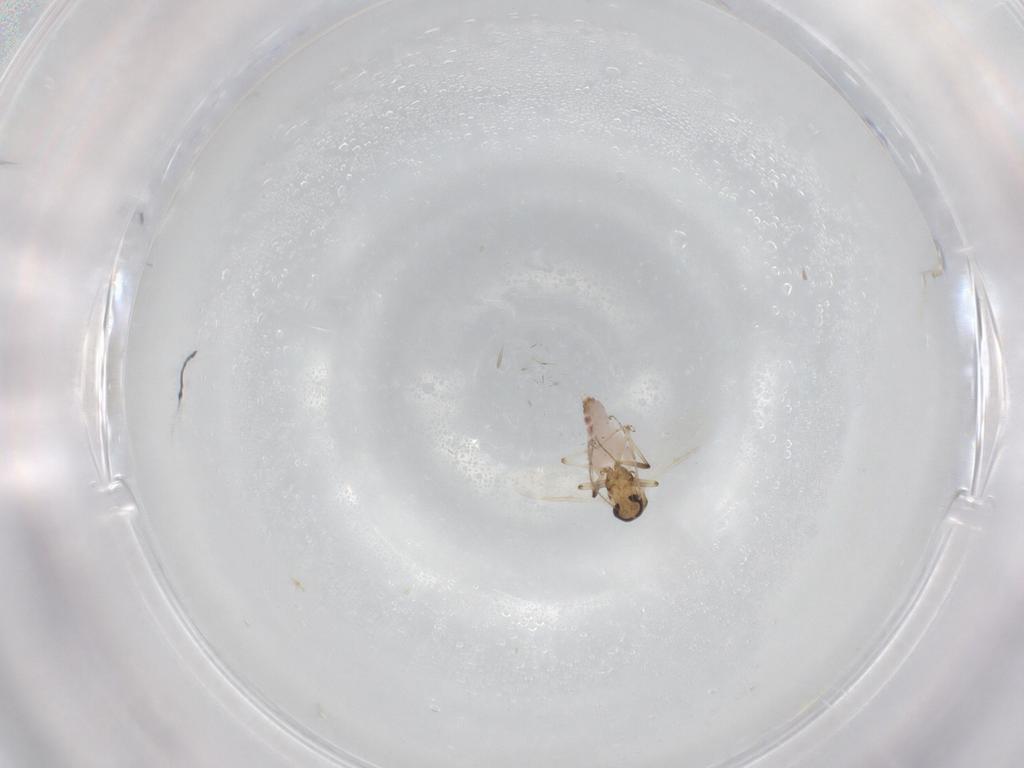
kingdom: Animalia
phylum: Arthropoda
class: Insecta
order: Diptera
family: Ceratopogonidae
